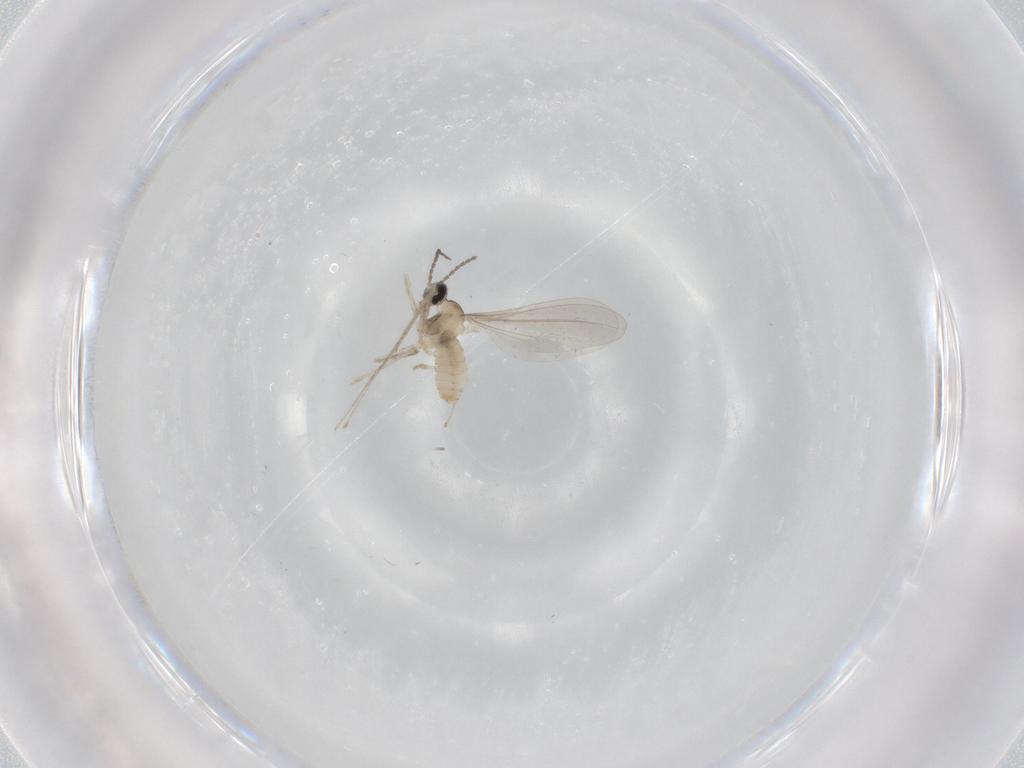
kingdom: Animalia
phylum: Arthropoda
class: Insecta
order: Diptera
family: Cecidomyiidae
